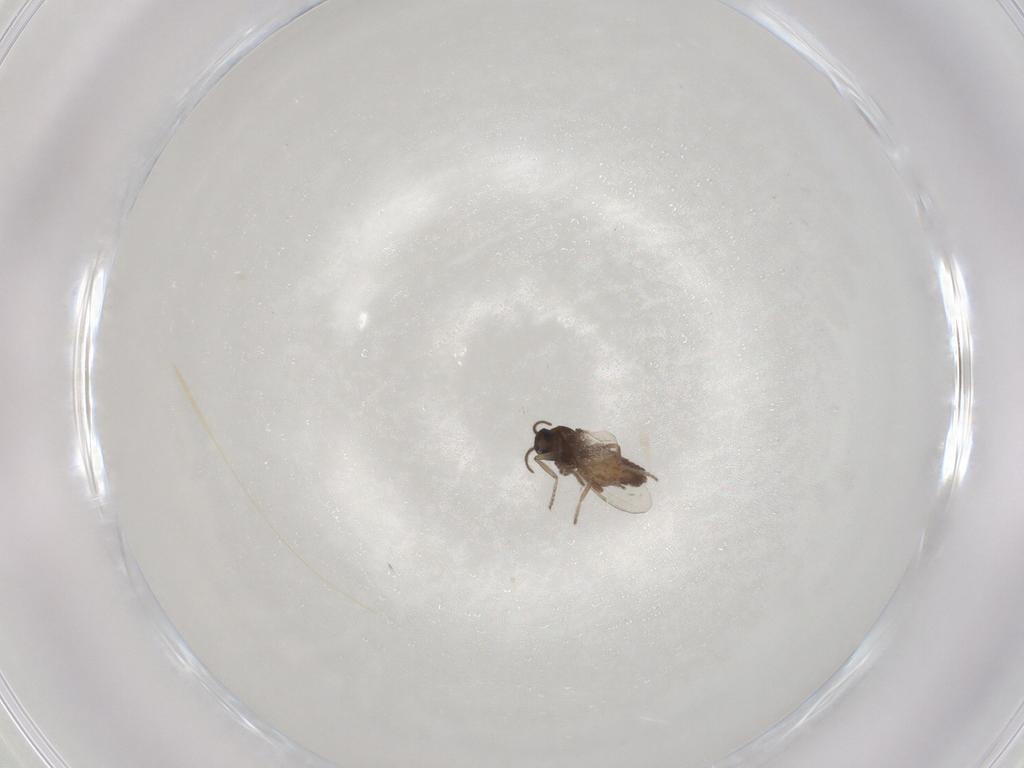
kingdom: Animalia
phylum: Arthropoda
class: Insecta
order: Diptera
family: Ceratopogonidae
